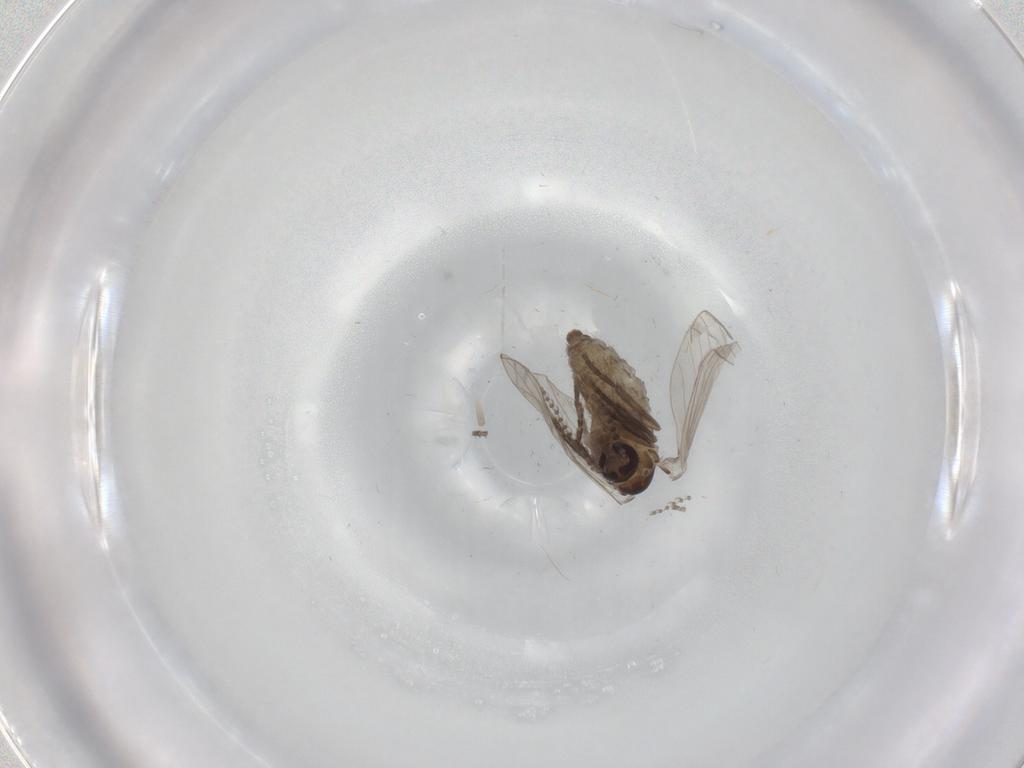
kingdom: Animalia
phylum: Arthropoda
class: Insecta
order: Diptera
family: Psychodidae
